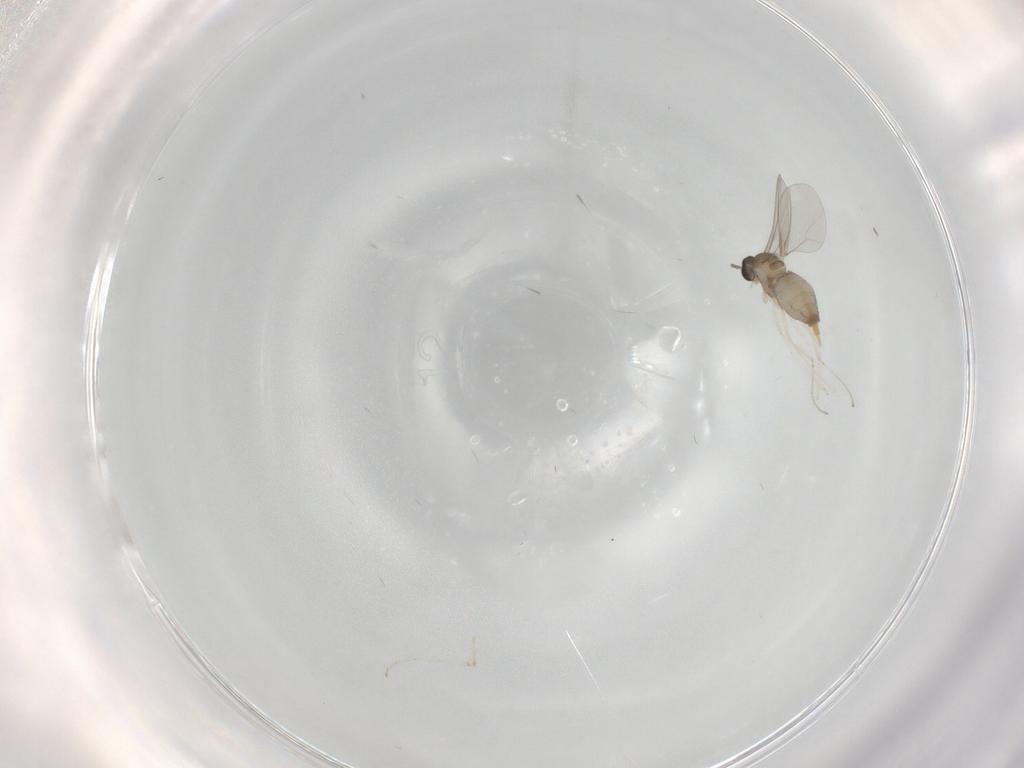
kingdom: Animalia
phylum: Arthropoda
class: Insecta
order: Diptera
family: Cecidomyiidae
